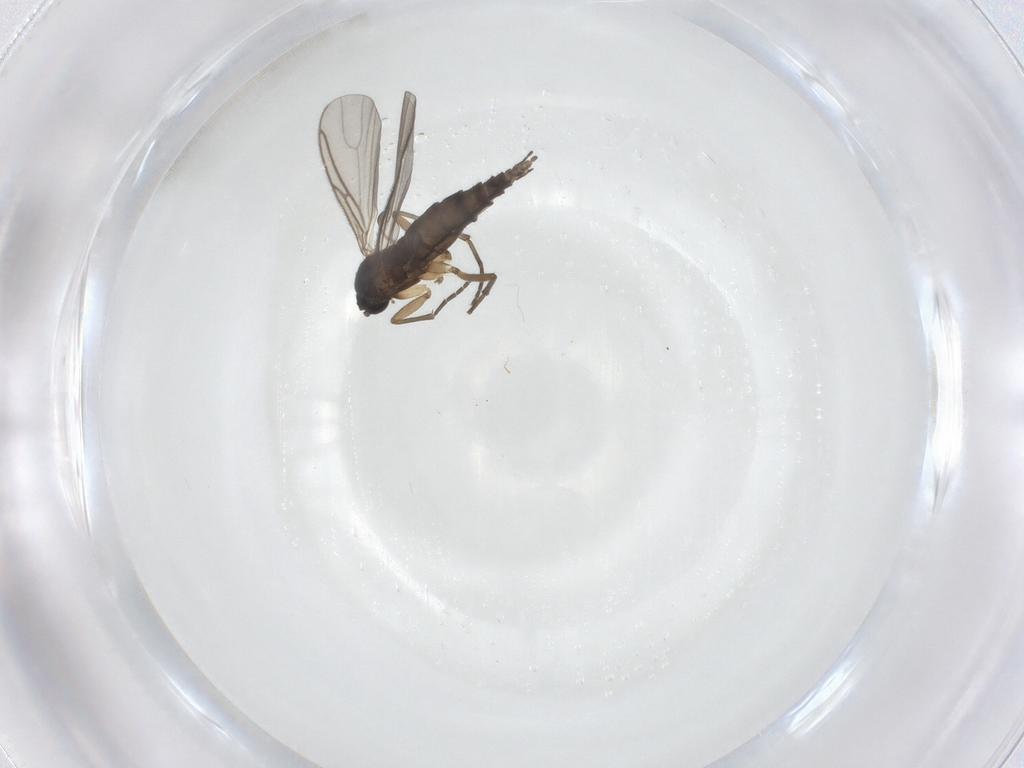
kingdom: Animalia
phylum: Arthropoda
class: Insecta
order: Diptera
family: Sciaridae
